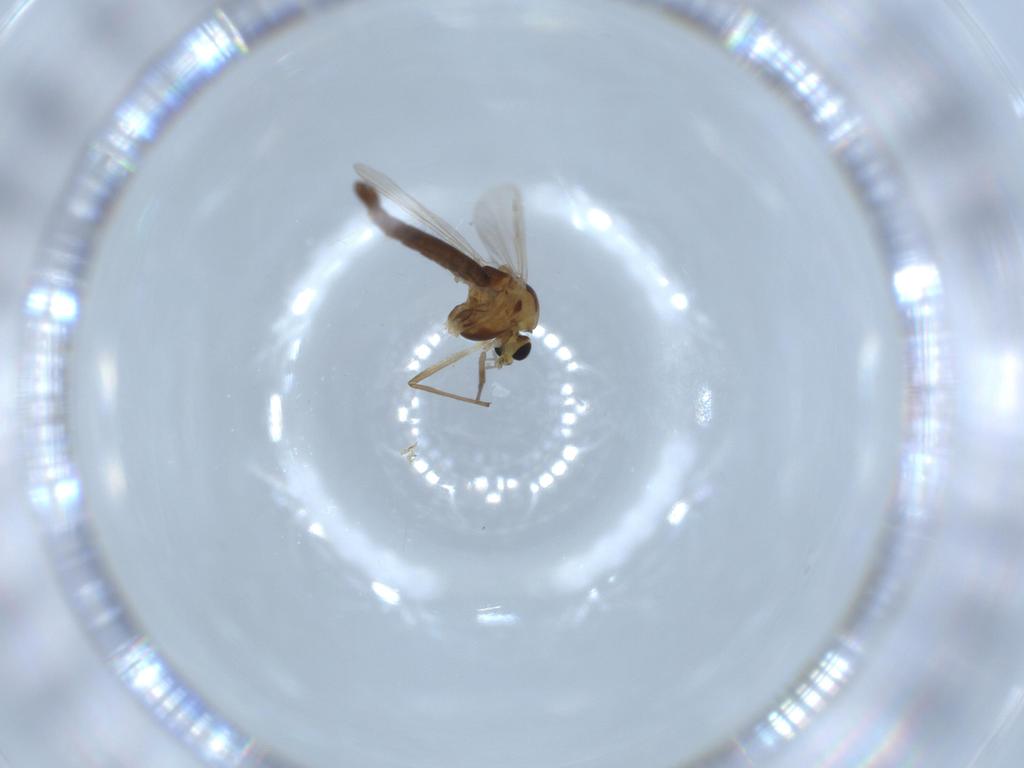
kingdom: Animalia
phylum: Arthropoda
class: Insecta
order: Diptera
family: Chironomidae
